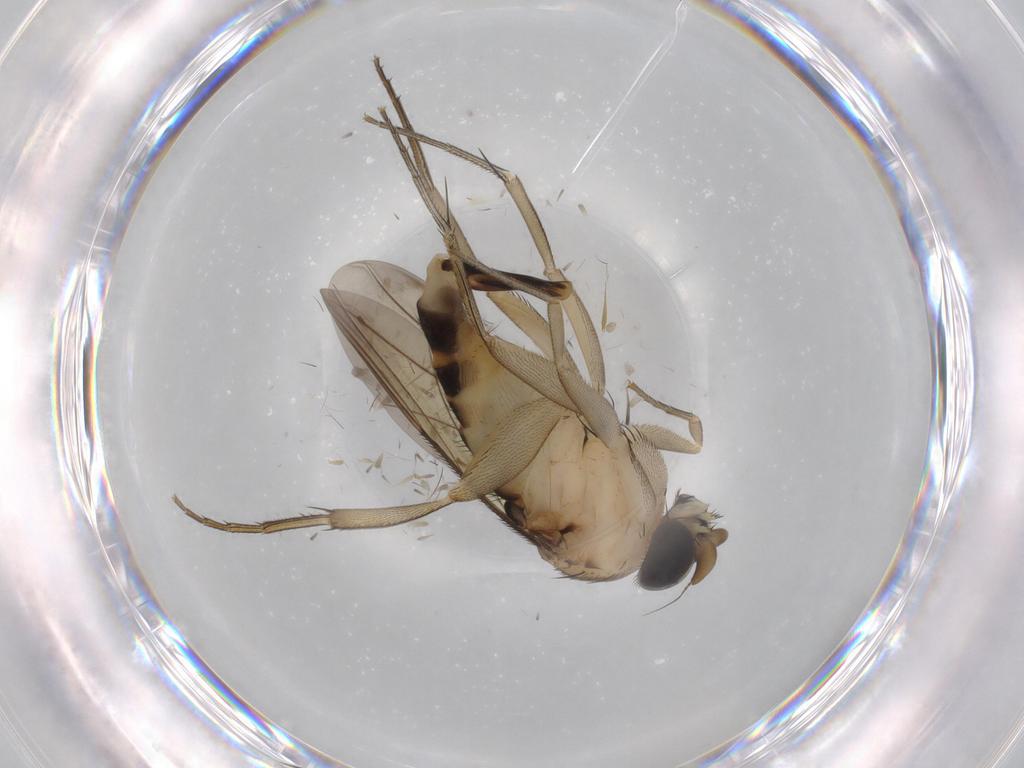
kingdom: Animalia
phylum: Arthropoda
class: Insecta
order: Diptera
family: Phoridae
